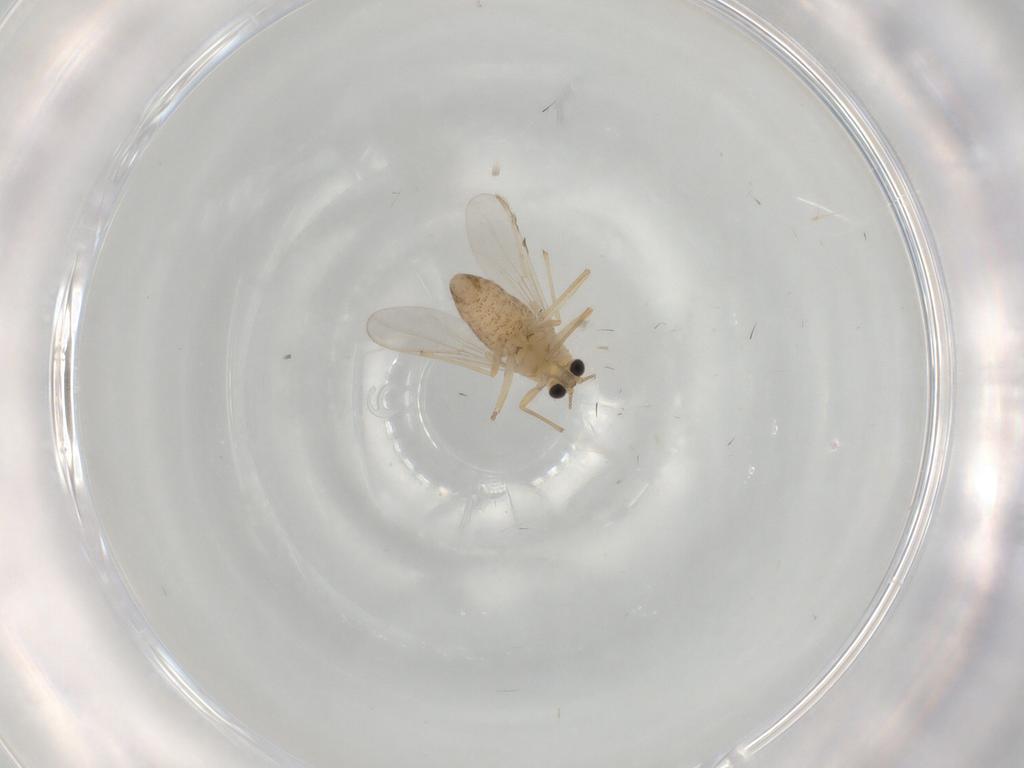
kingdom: Animalia
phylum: Arthropoda
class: Insecta
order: Diptera
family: Chironomidae
